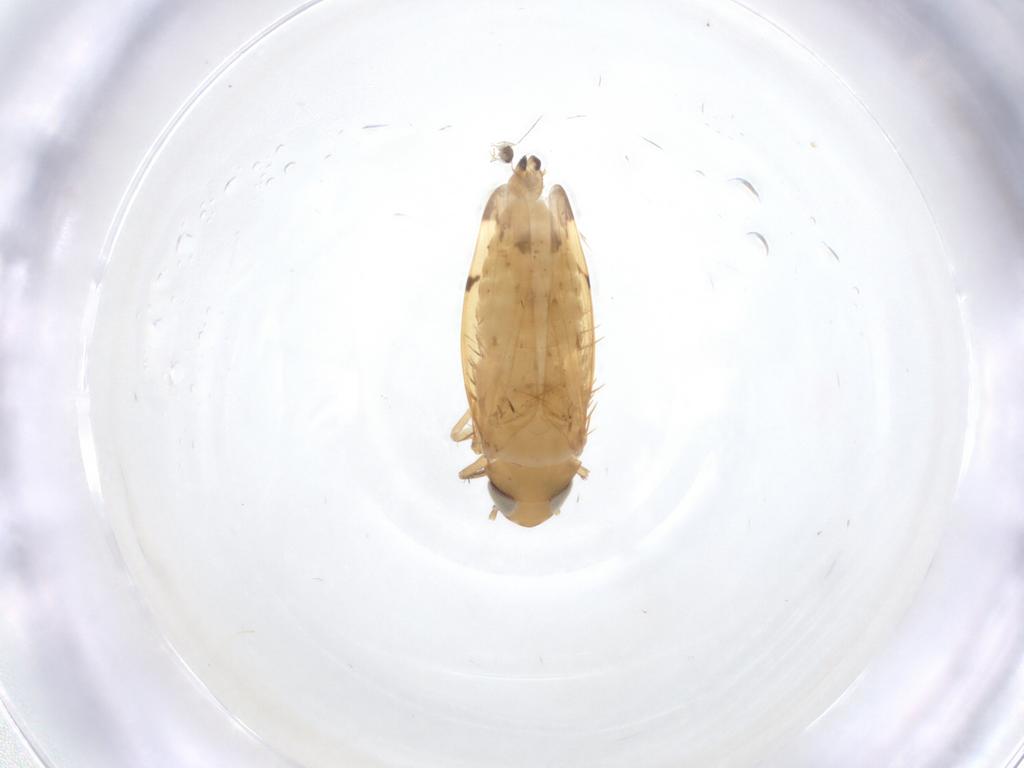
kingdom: Animalia
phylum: Arthropoda
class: Insecta
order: Hemiptera
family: Cicadellidae
